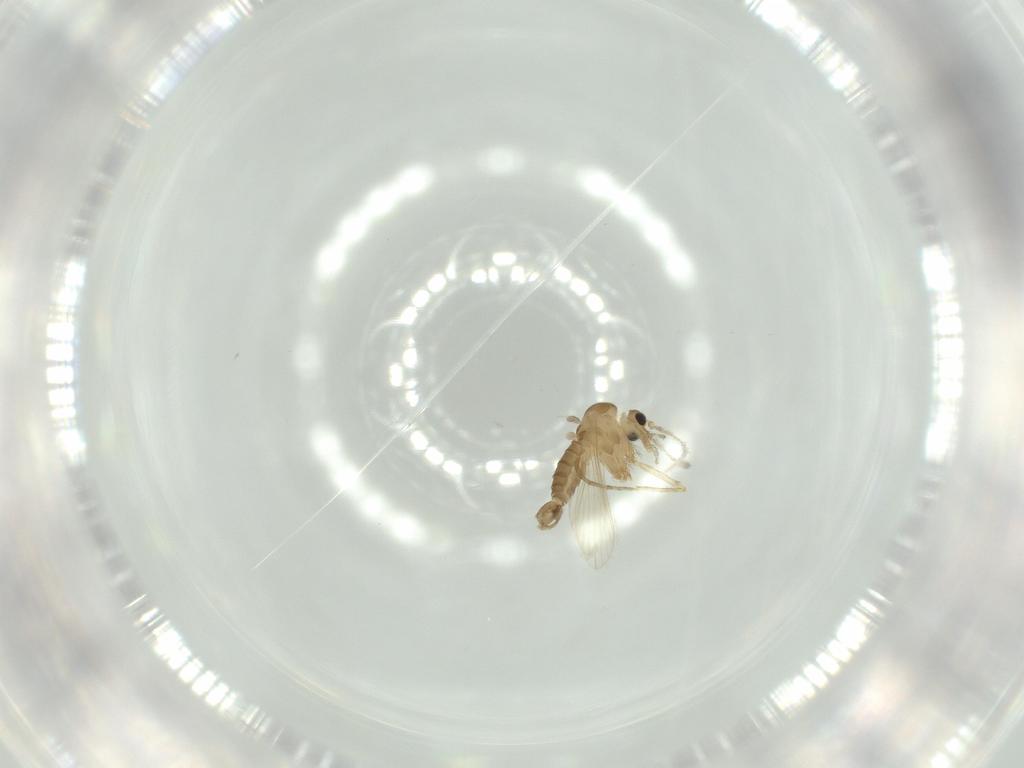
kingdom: Animalia
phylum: Arthropoda
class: Insecta
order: Diptera
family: Psychodidae
